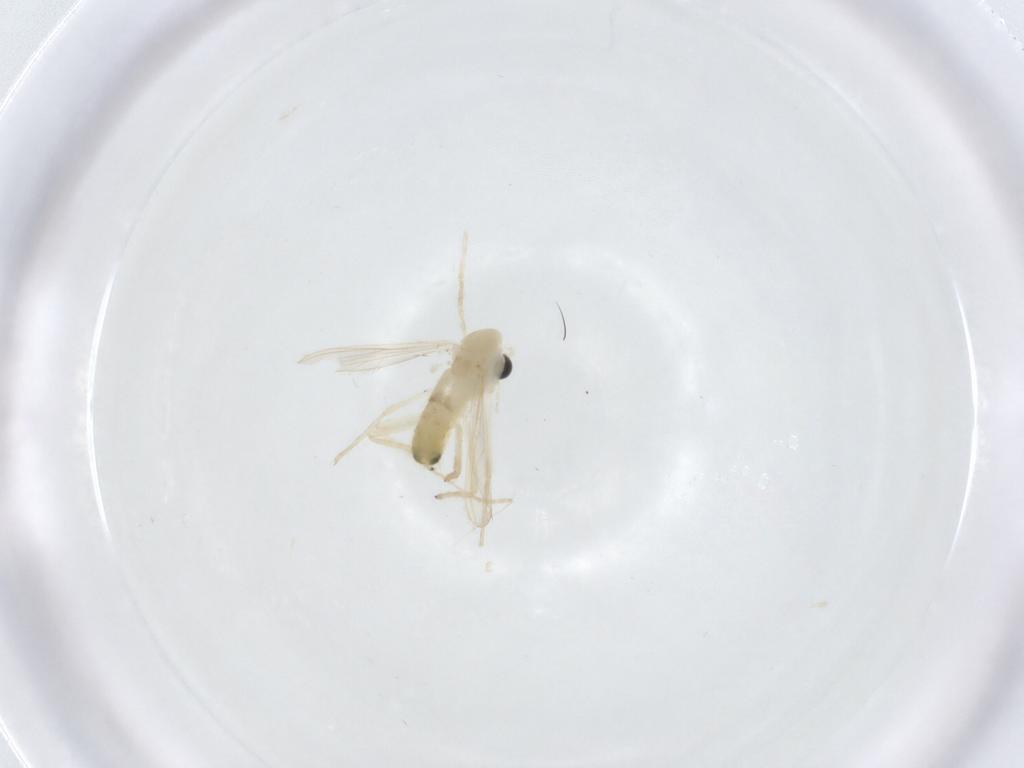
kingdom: Animalia
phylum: Arthropoda
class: Insecta
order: Diptera
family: Chironomidae
